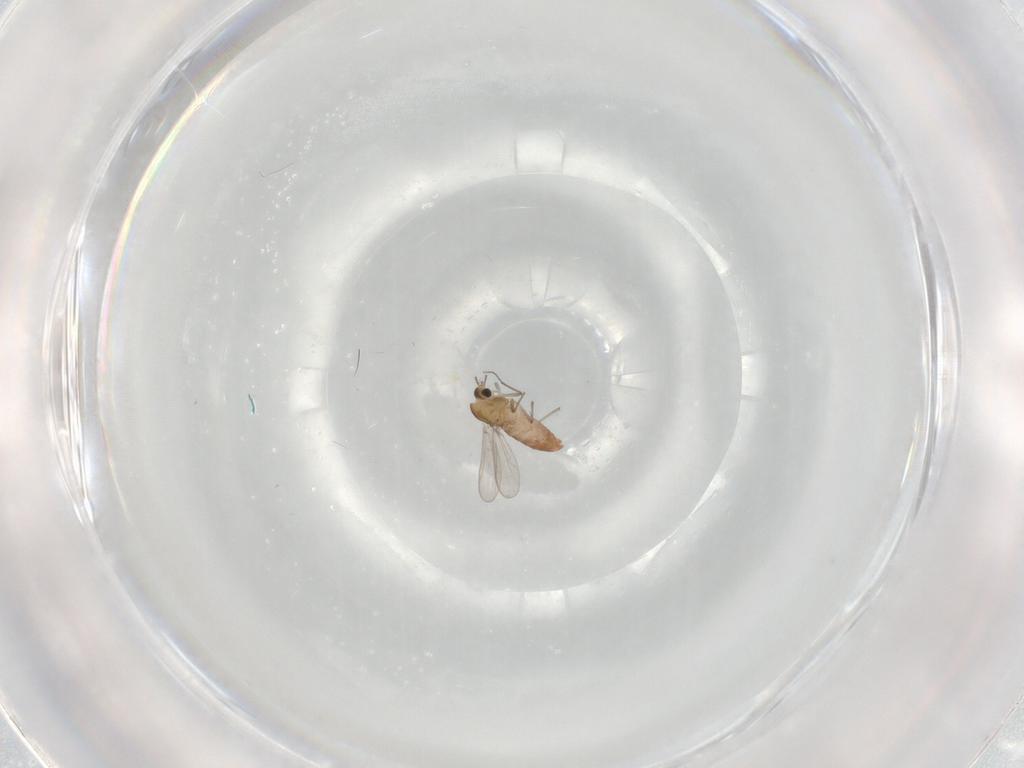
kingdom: Animalia
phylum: Arthropoda
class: Insecta
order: Diptera
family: Chironomidae
